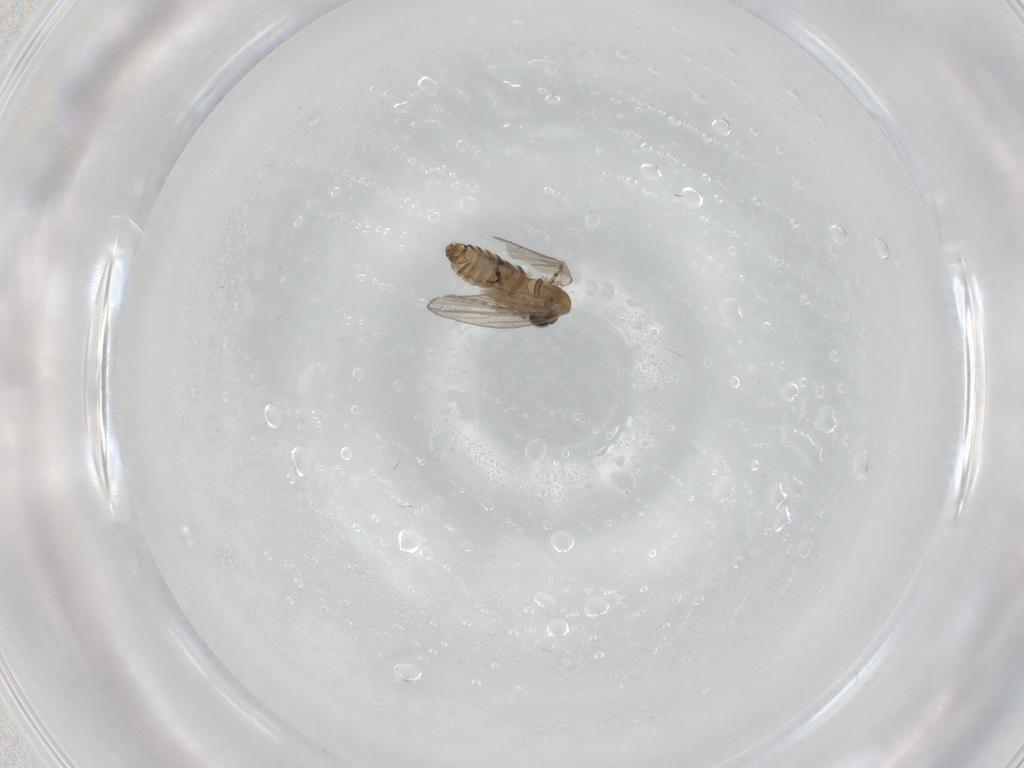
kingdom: Animalia
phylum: Arthropoda
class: Insecta
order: Diptera
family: Psychodidae
